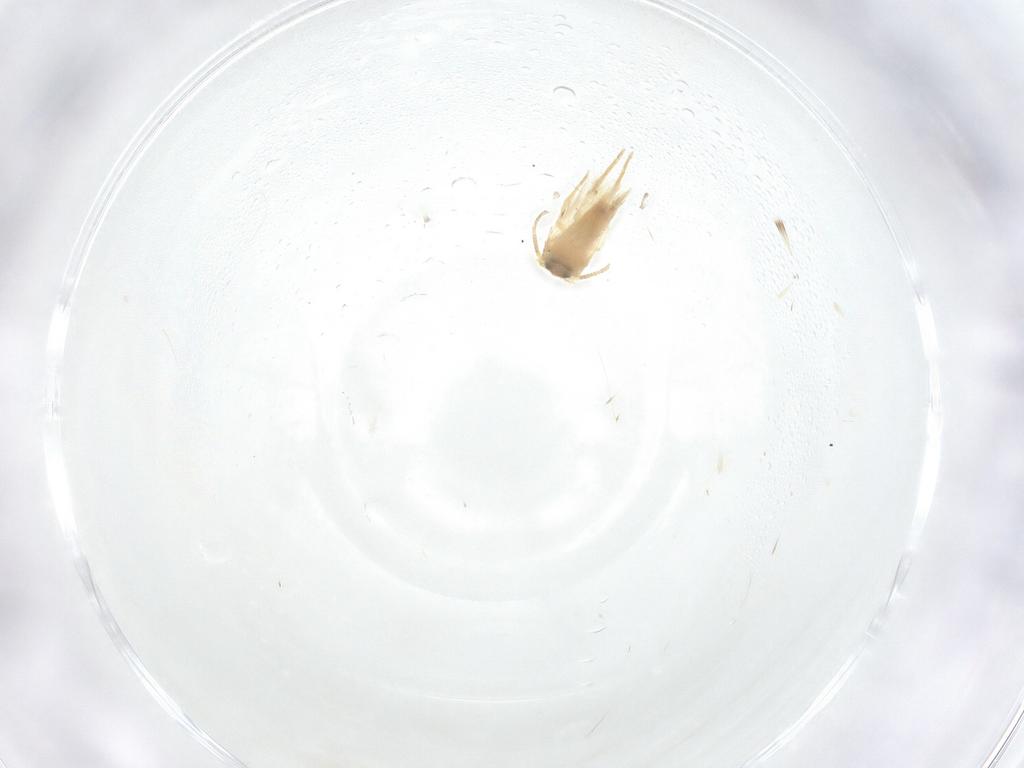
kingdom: Animalia
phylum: Arthropoda
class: Insecta
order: Lepidoptera
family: Crambidae
